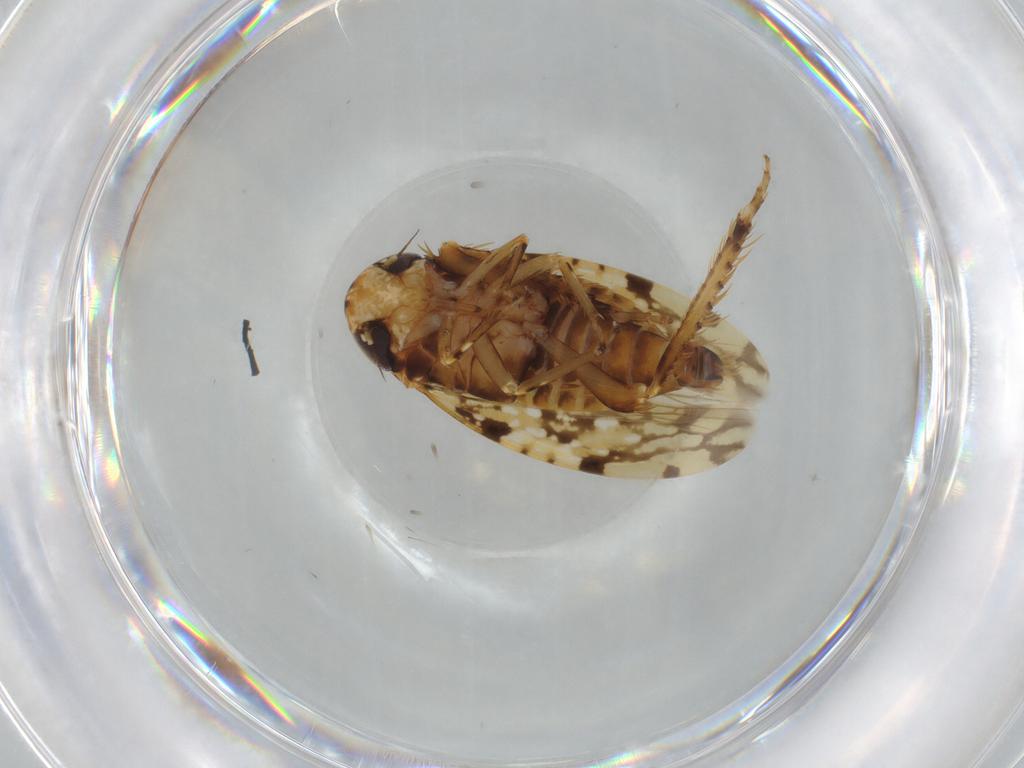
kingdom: Animalia
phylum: Arthropoda
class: Insecta
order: Hemiptera
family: Cicadellidae
